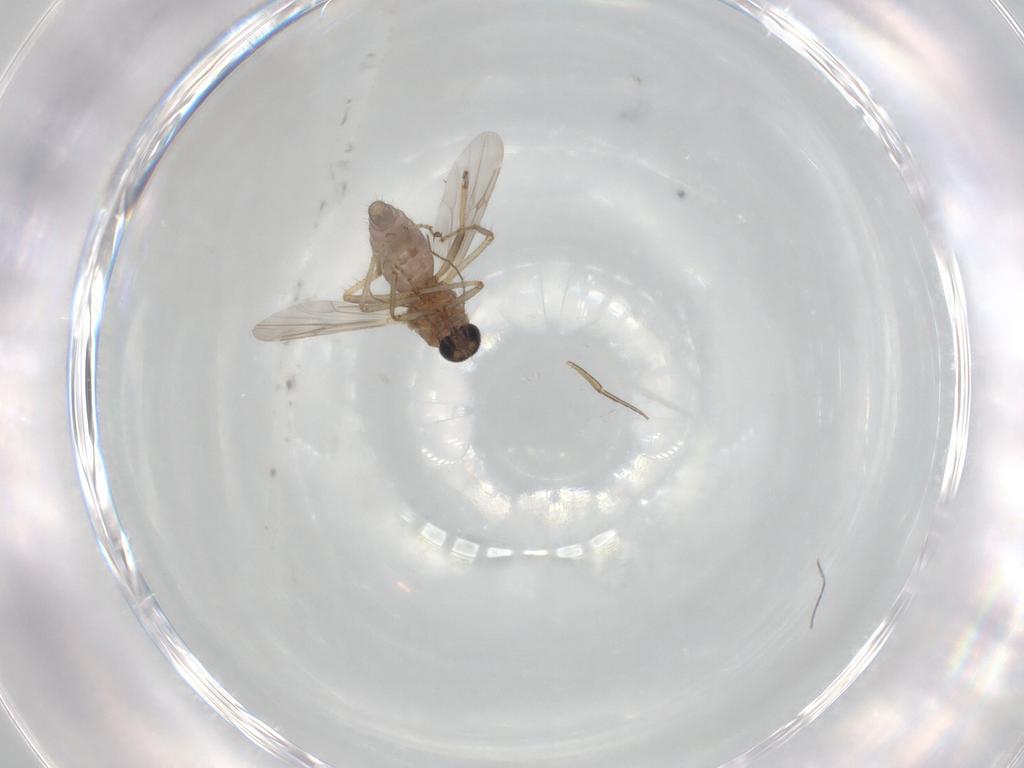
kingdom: Animalia
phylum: Arthropoda
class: Insecta
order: Diptera
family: Ceratopogonidae
